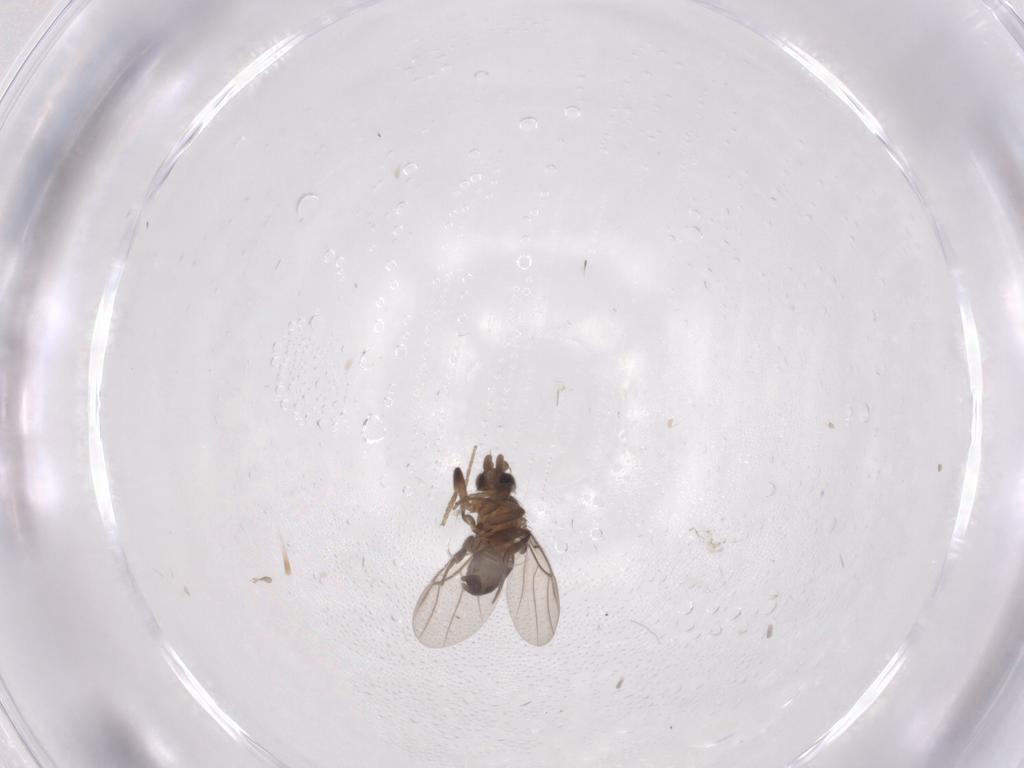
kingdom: Animalia
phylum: Arthropoda
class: Insecta
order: Diptera
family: Phoridae
